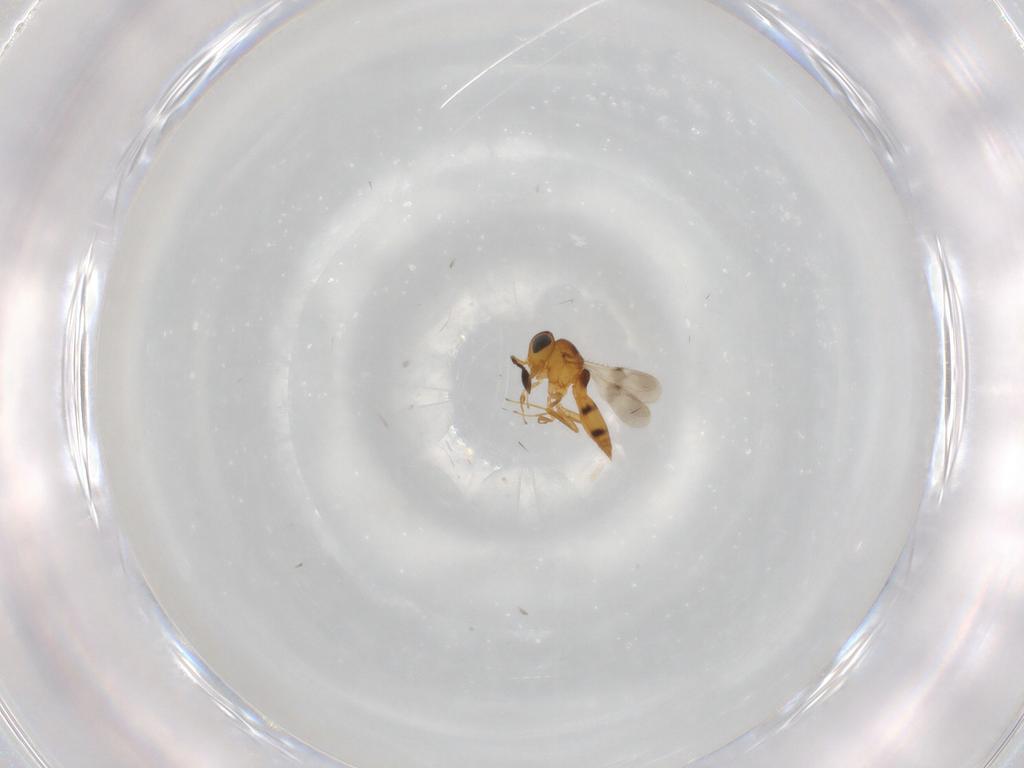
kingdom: Animalia
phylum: Arthropoda
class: Insecta
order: Hymenoptera
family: Scelionidae
